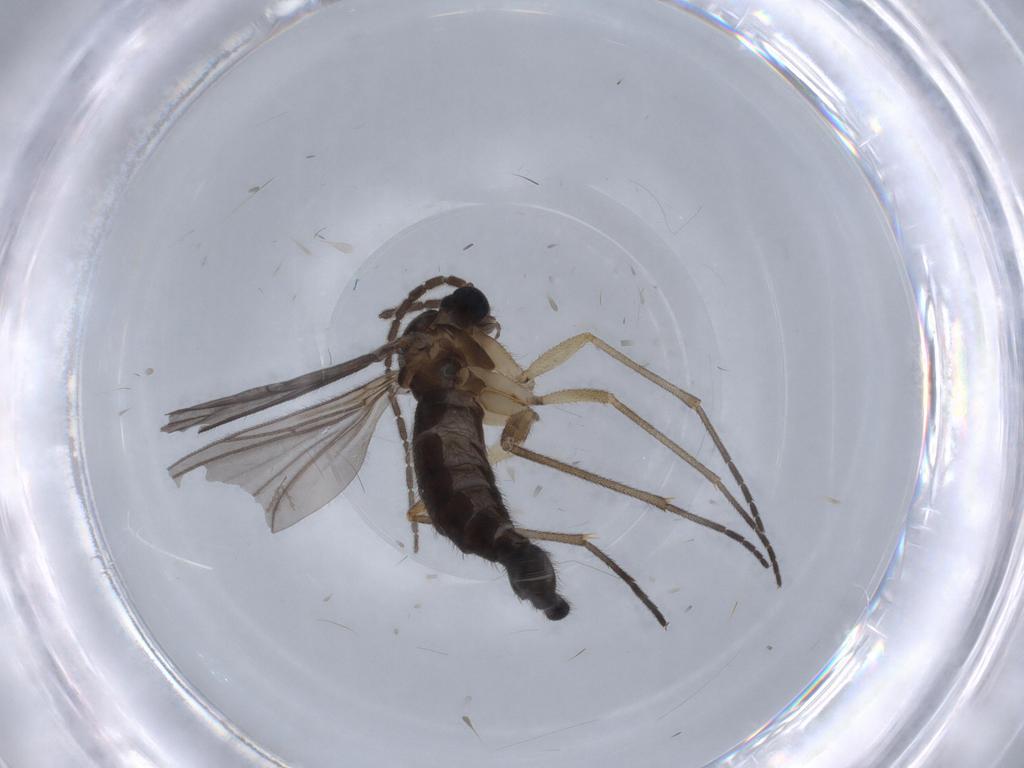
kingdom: Animalia
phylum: Arthropoda
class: Insecta
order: Diptera
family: Sciaridae
